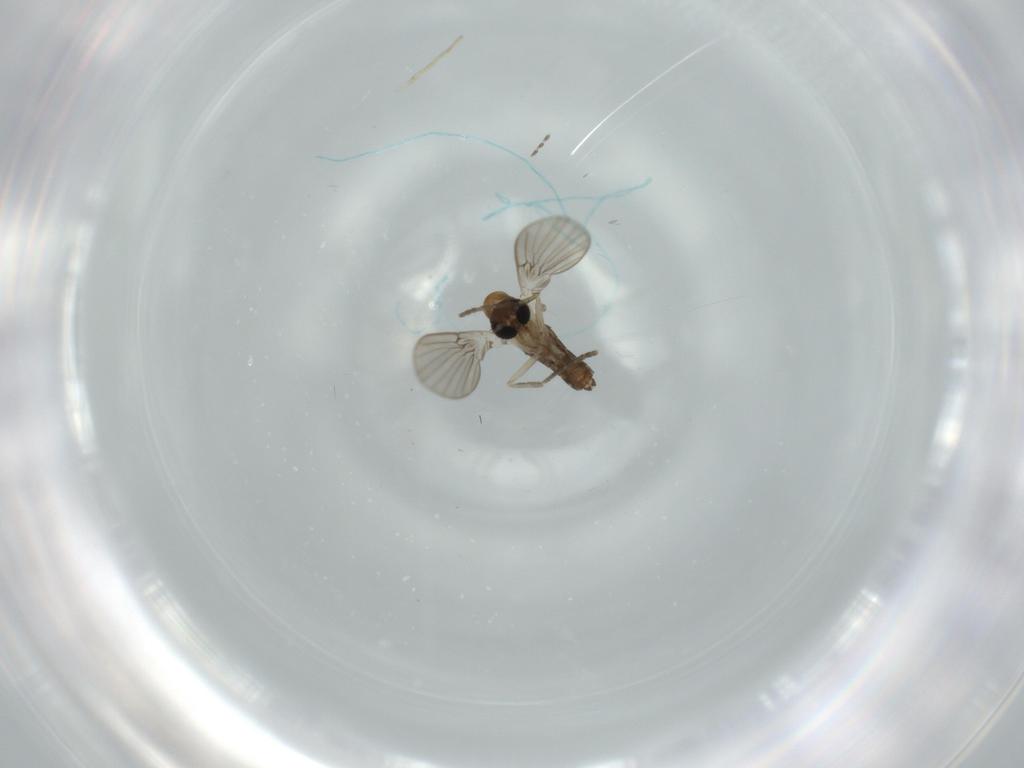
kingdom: Animalia
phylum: Arthropoda
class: Insecta
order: Diptera
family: Psychodidae
